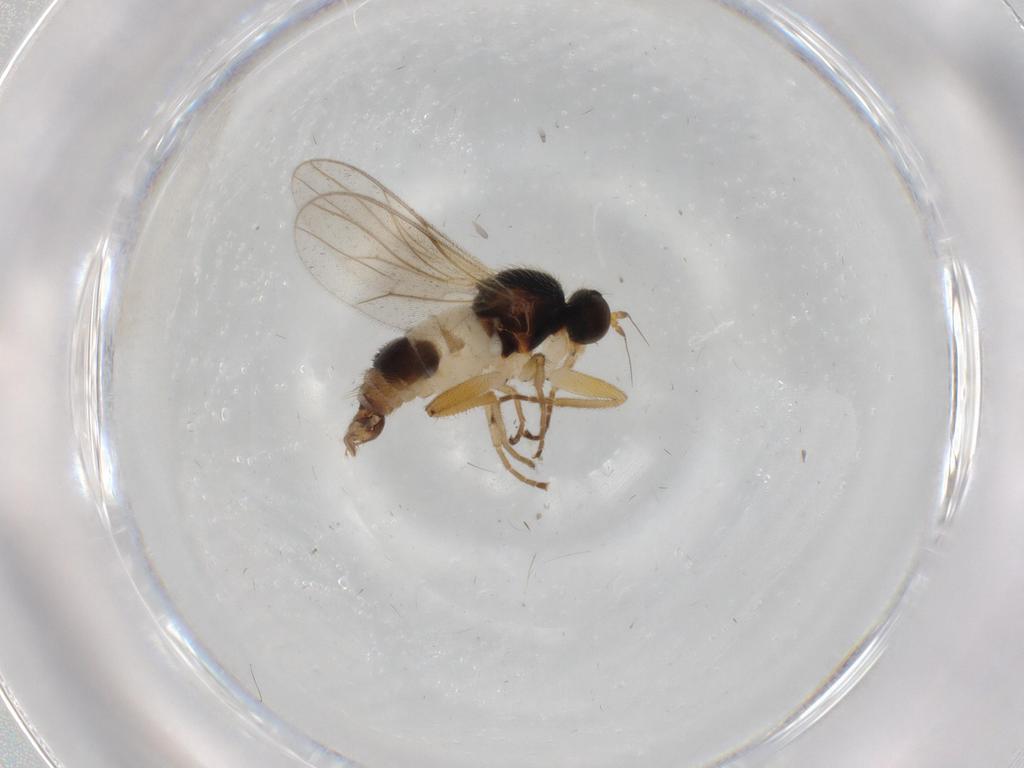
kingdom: Animalia
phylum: Arthropoda
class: Insecta
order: Diptera
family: Hybotidae
